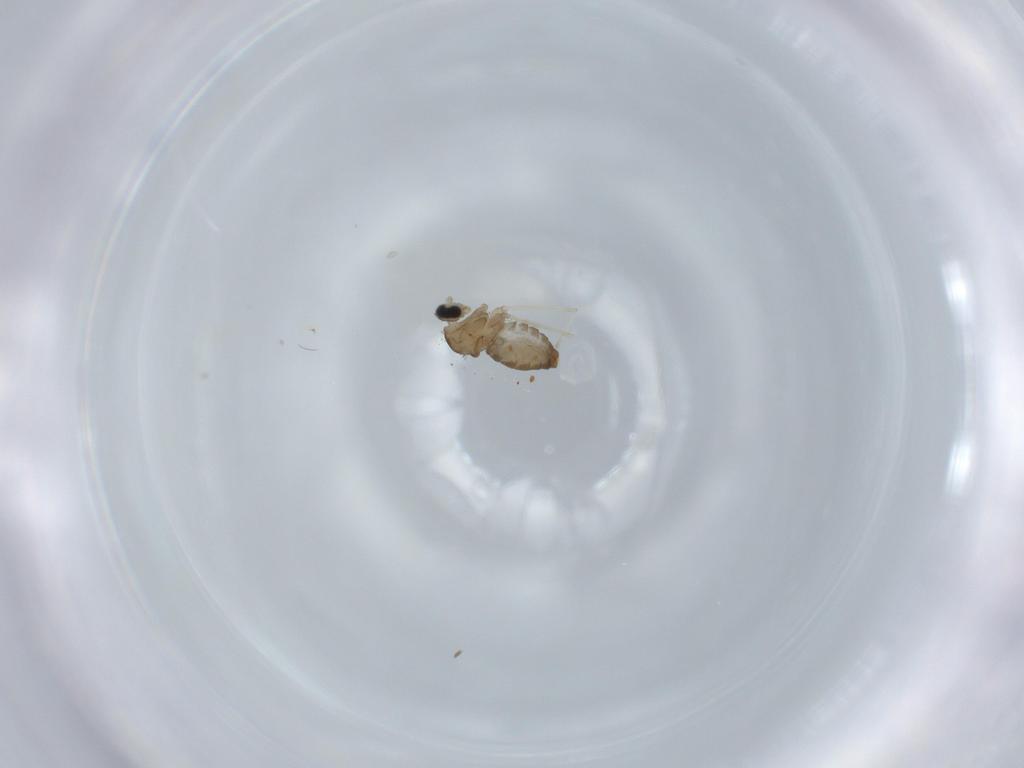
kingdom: Animalia
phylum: Arthropoda
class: Insecta
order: Diptera
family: Cecidomyiidae
